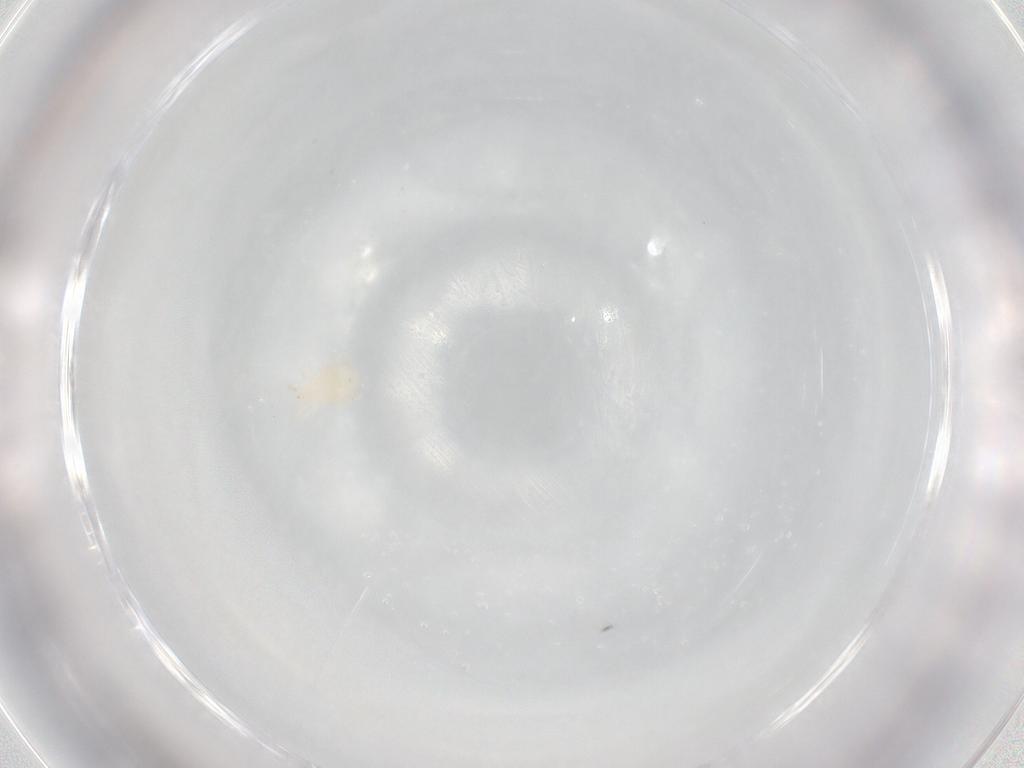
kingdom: Animalia
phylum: Arthropoda
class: Arachnida
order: Mesostigmata
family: Ascidae
